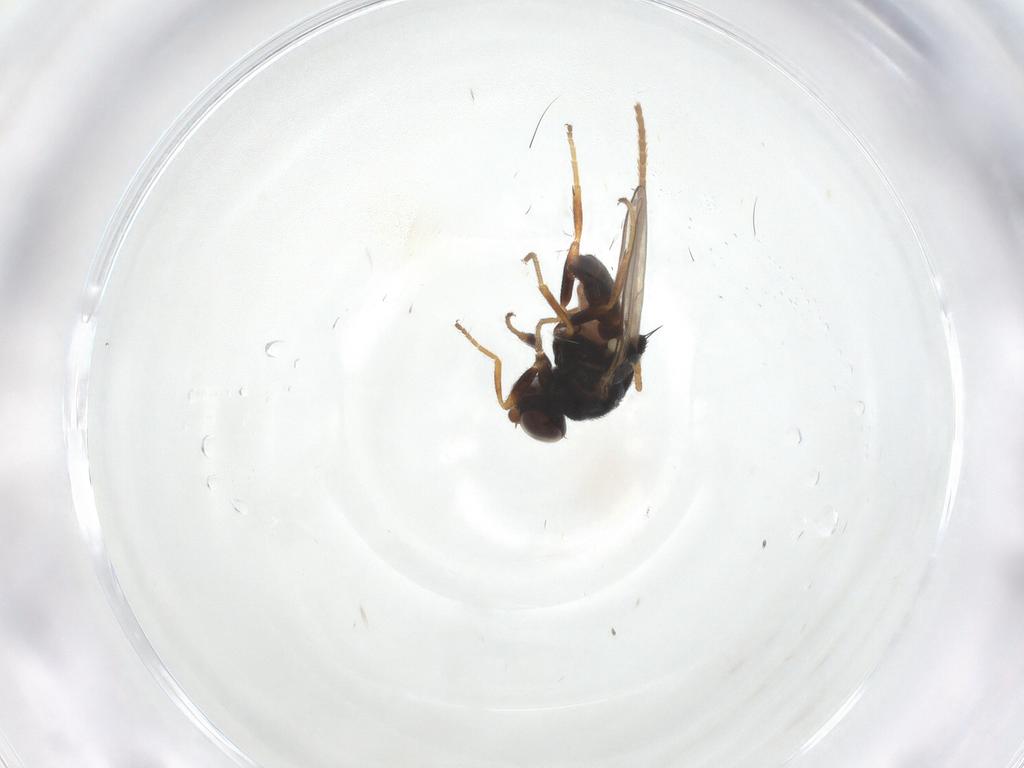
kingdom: Animalia
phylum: Arthropoda
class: Insecta
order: Diptera
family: Chloropidae
